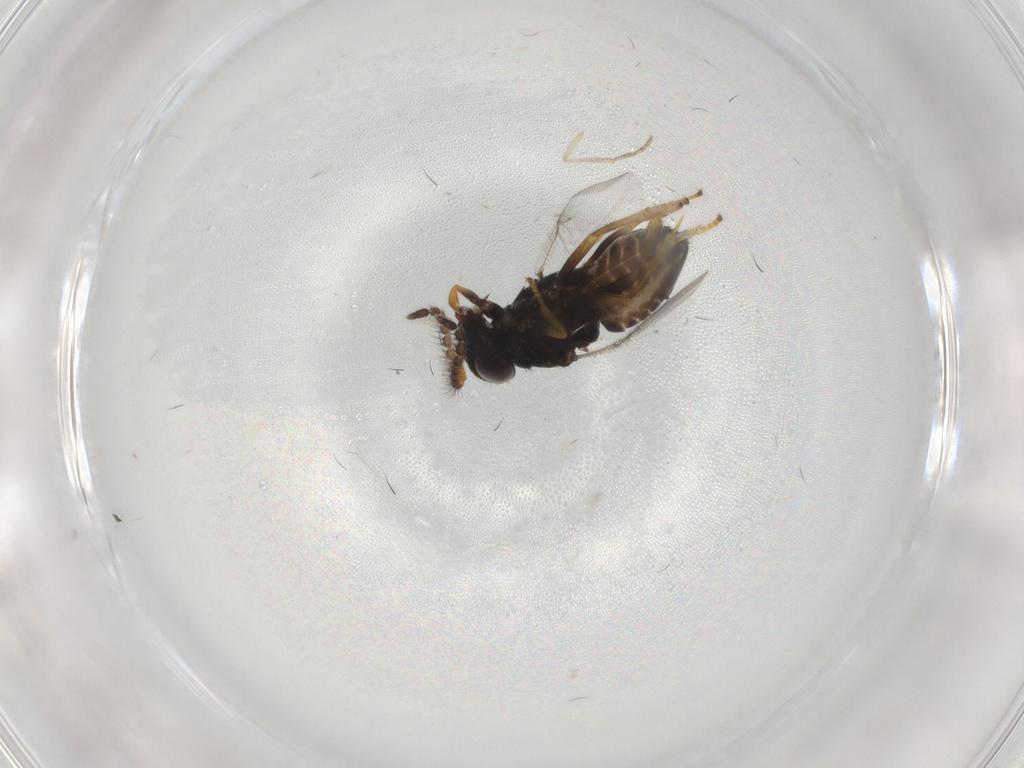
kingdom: Animalia
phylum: Arthropoda
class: Insecta
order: Diptera
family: Psychodidae
